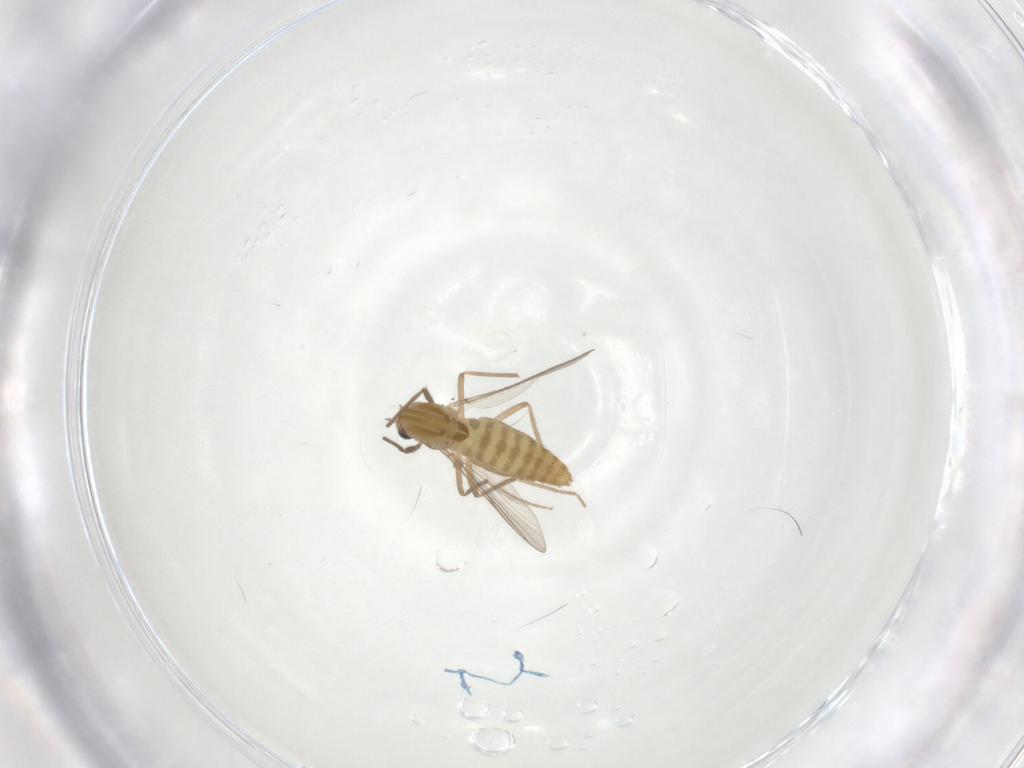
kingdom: Animalia
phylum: Arthropoda
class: Insecta
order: Diptera
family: Chironomidae
